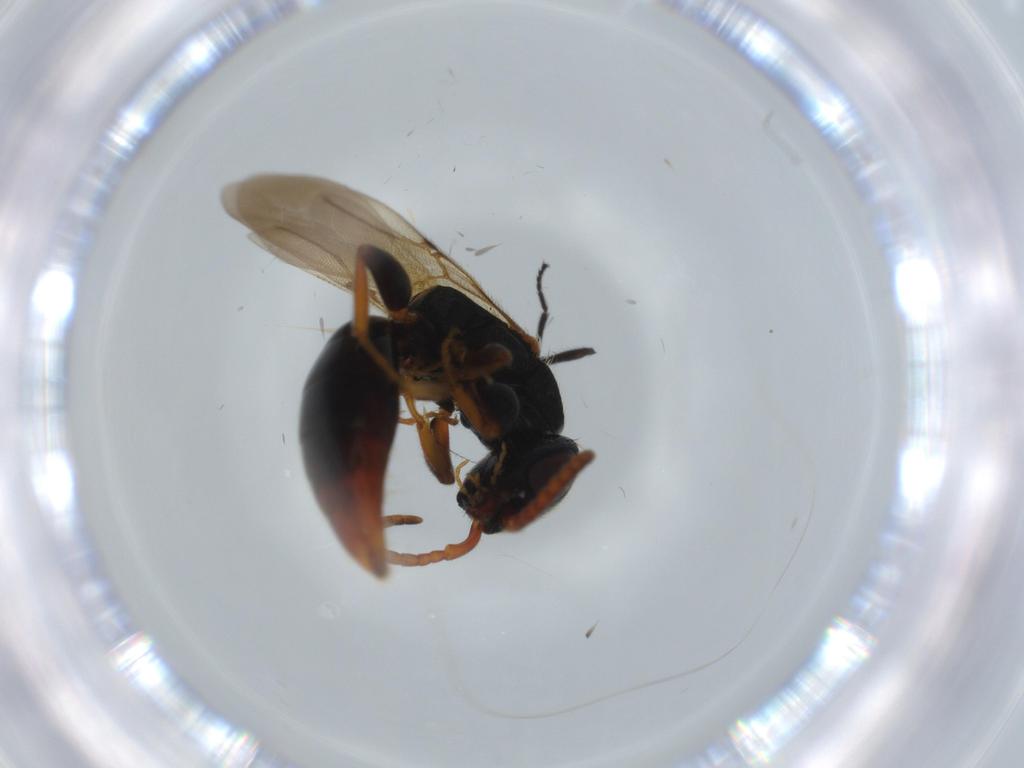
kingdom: Animalia
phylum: Arthropoda
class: Insecta
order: Hymenoptera
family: Bethylidae
